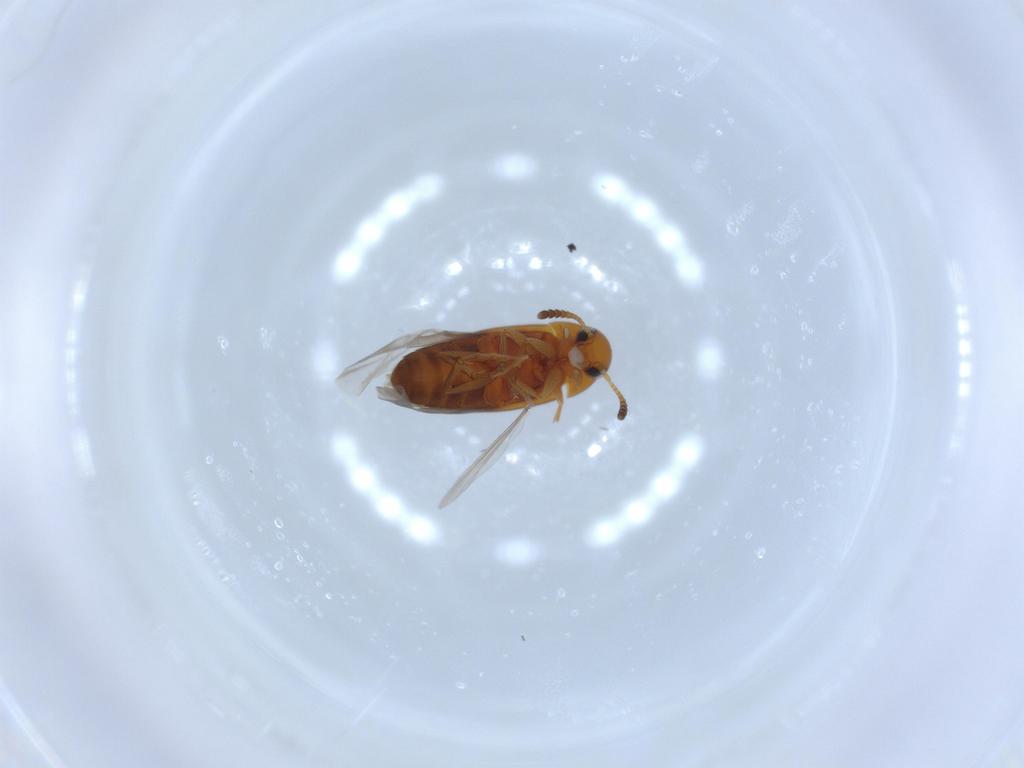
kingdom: Animalia
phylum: Arthropoda
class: Insecta
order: Coleoptera
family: Scraptiidae
